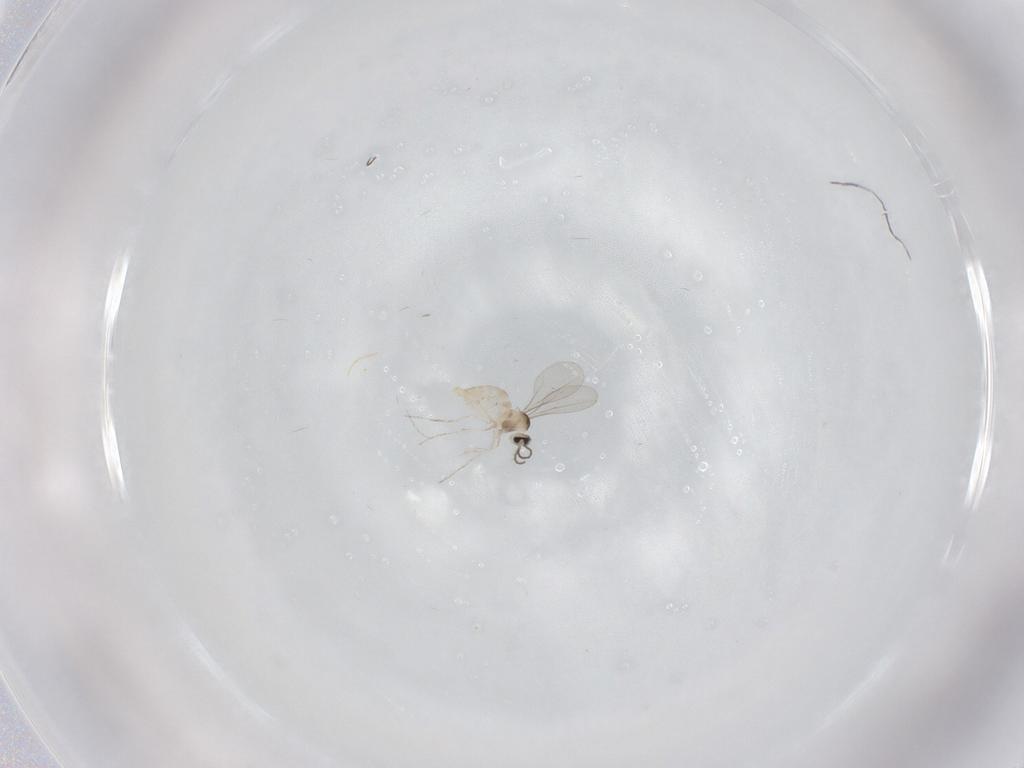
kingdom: Animalia
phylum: Arthropoda
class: Insecta
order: Diptera
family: Cecidomyiidae
